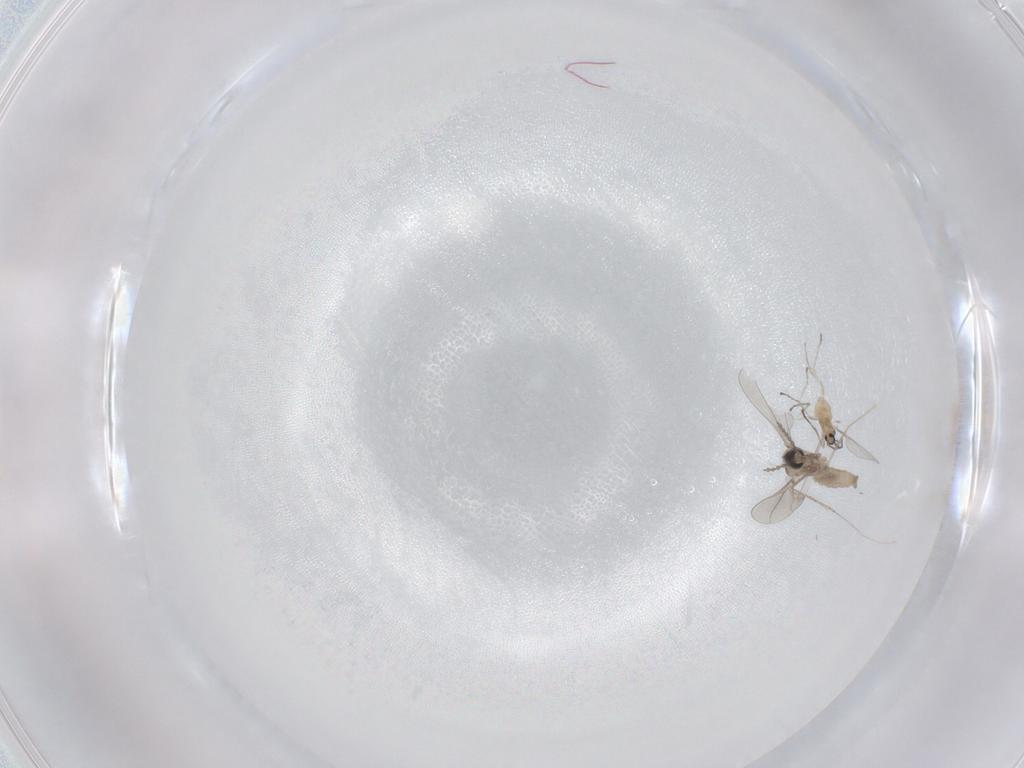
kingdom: Animalia
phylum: Arthropoda
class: Insecta
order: Diptera
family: Cecidomyiidae
